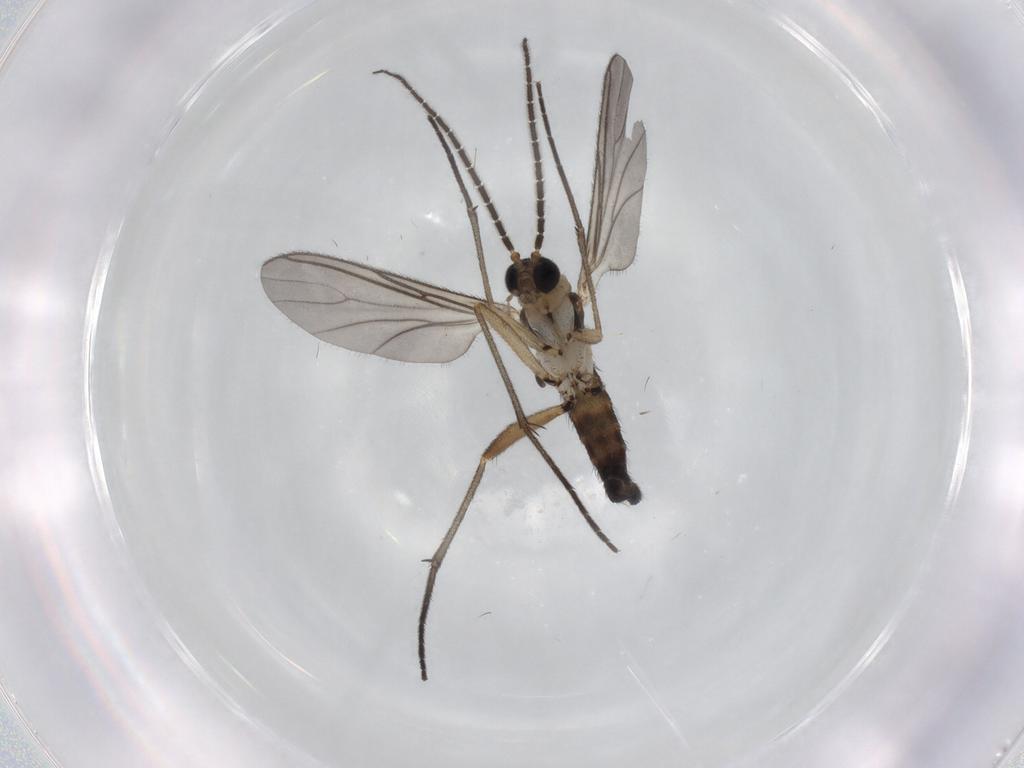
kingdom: Animalia
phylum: Arthropoda
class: Insecta
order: Diptera
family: Sciaridae
